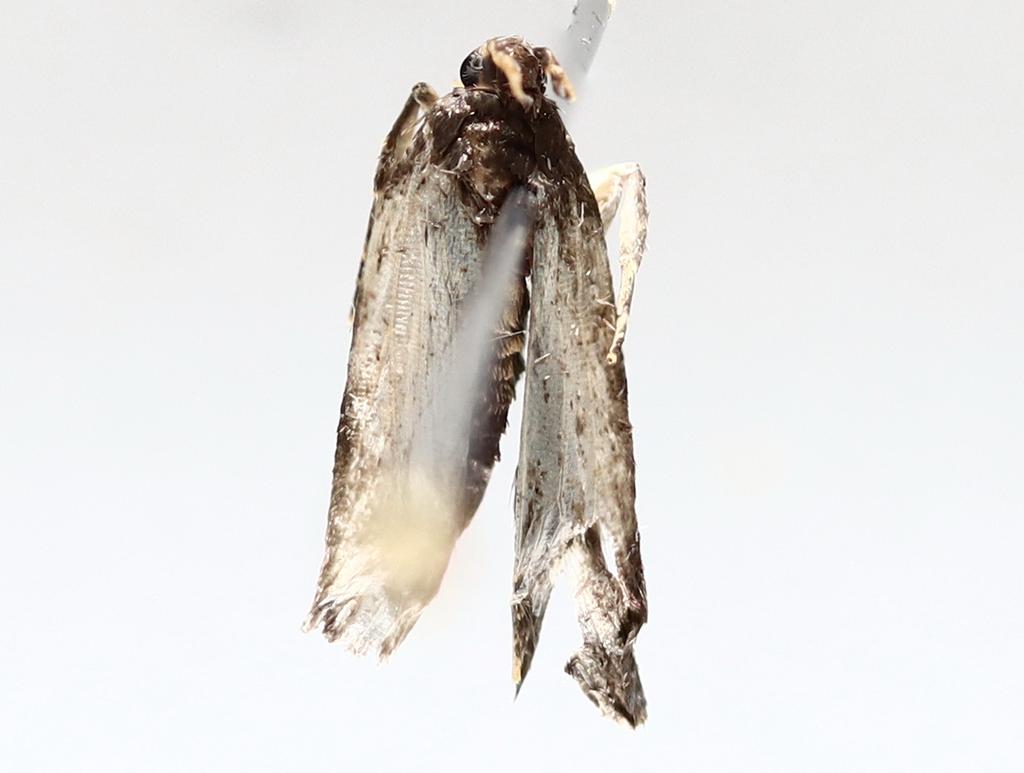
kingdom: Animalia
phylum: Arthropoda
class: Insecta
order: Diptera
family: Psychodidae
